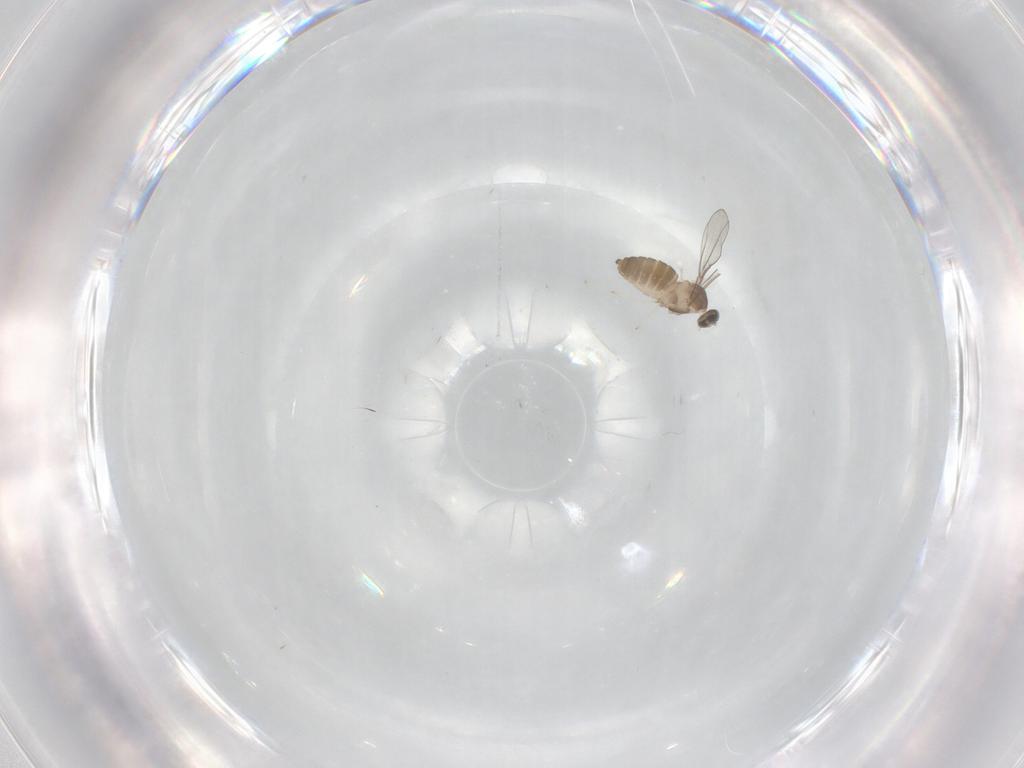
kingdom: Animalia
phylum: Arthropoda
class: Insecta
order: Diptera
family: Cecidomyiidae
